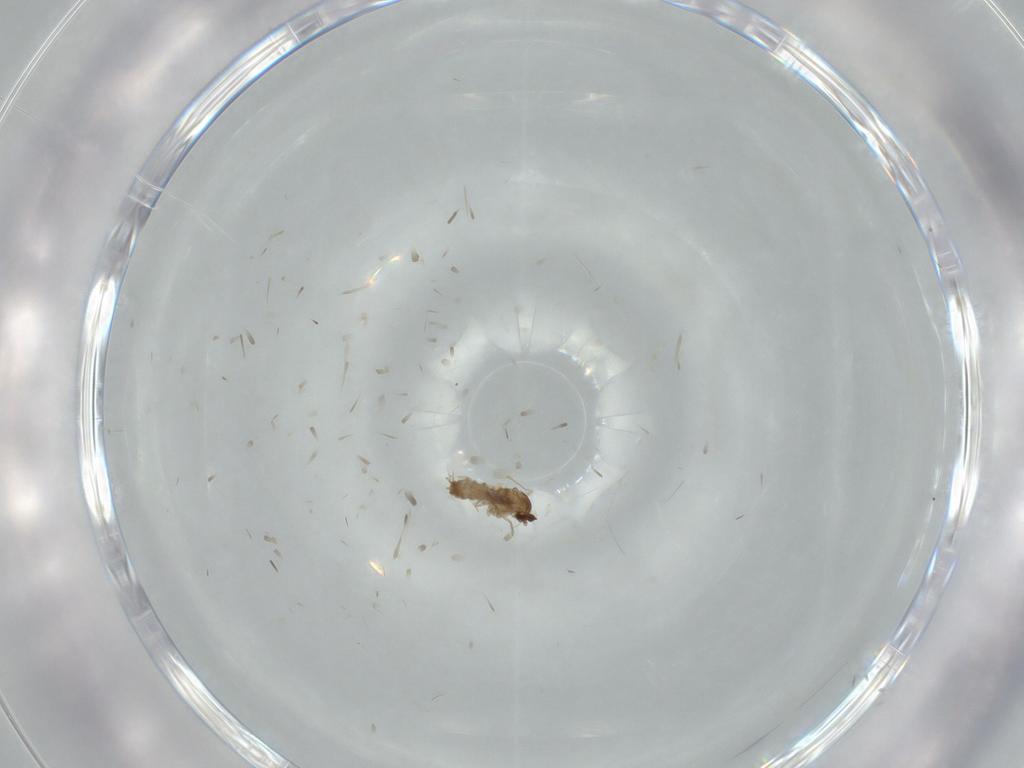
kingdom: Animalia
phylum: Arthropoda
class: Insecta
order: Diptera
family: Cecidomyiidae
